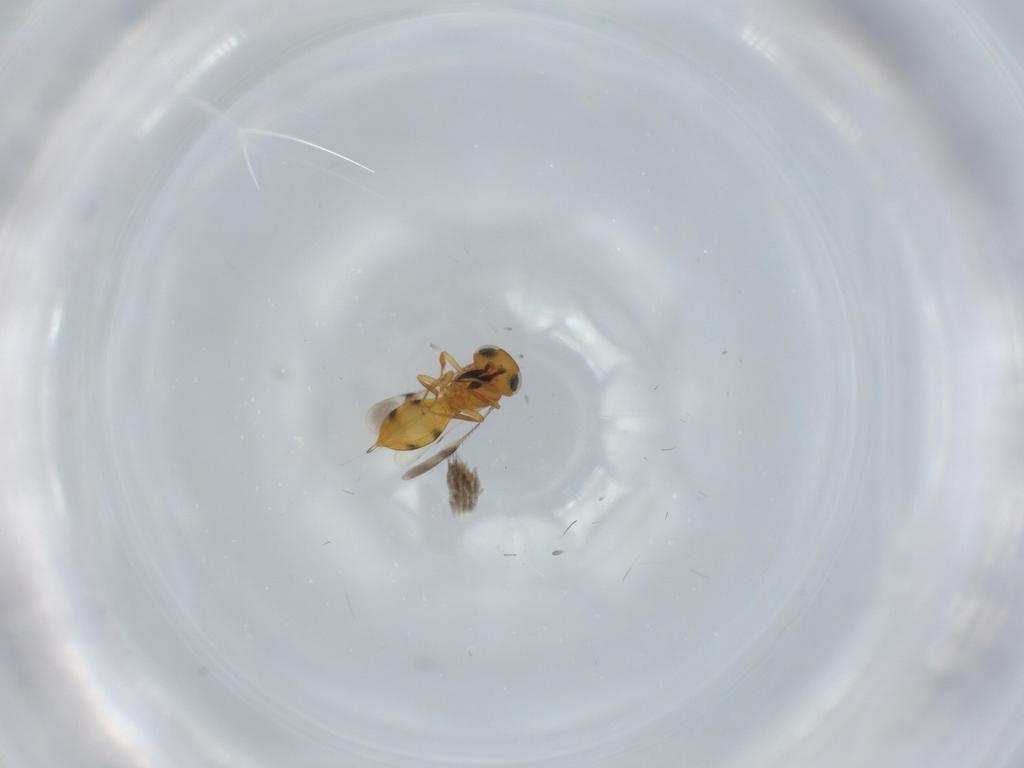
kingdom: Animalia
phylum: Arthropoda
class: Insecta
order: Hymenoptera
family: Scelionidae
